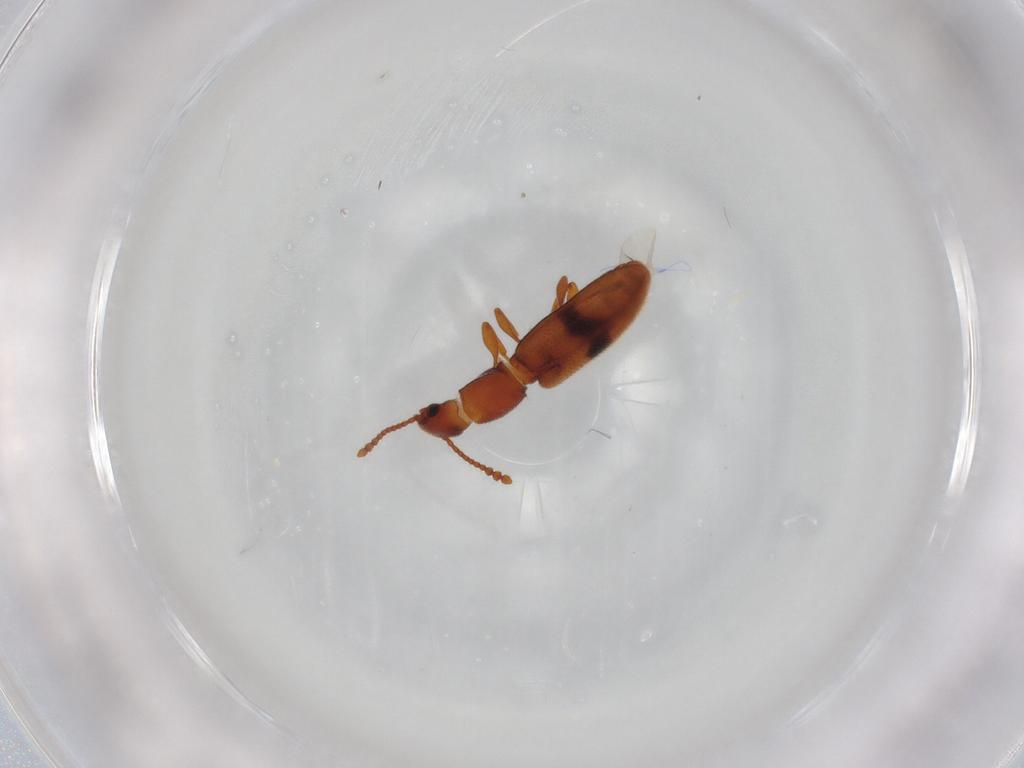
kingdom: Animalia
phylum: Arthropoda
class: Insecta
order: Coleoptera
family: Silvanidae
